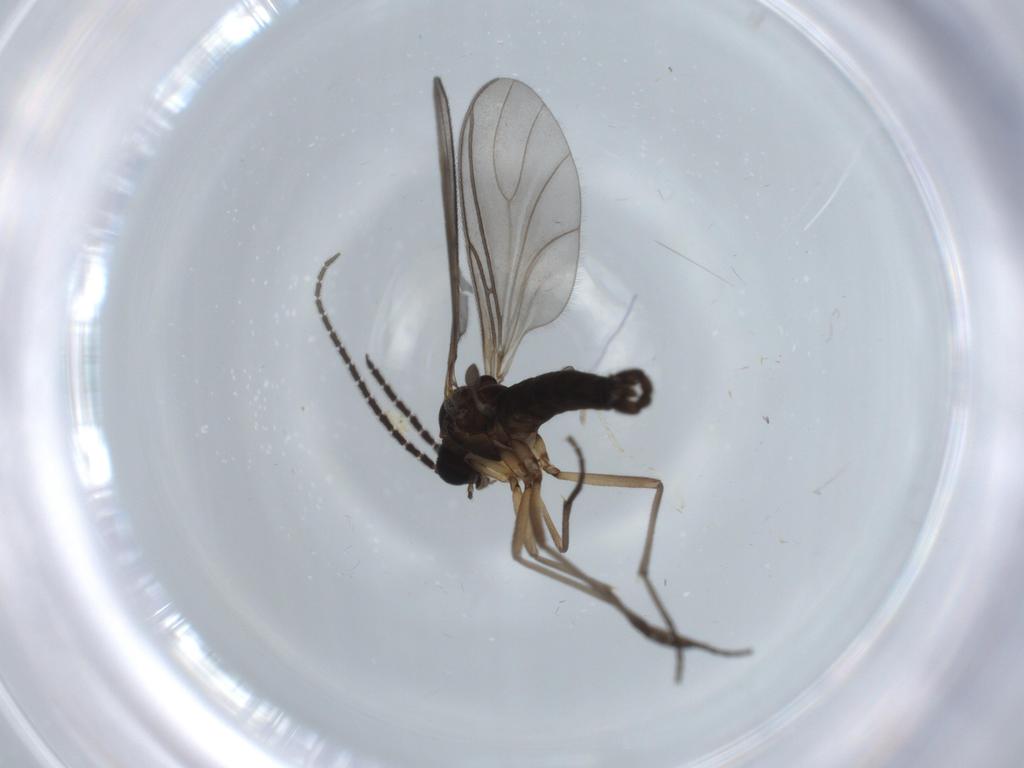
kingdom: Animalia
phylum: Arthropoda
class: Insecta
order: Diptera
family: Sciaridae
